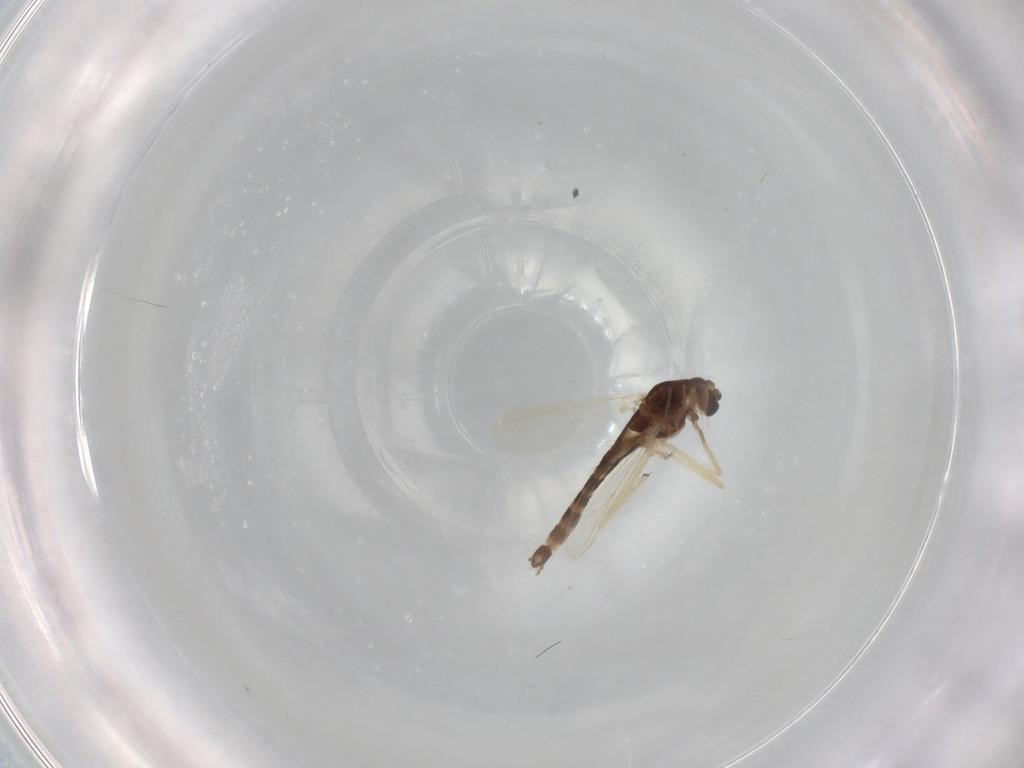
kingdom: Animalia
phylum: Arthropoda
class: Insecta
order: Diptera
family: Chironomidae
